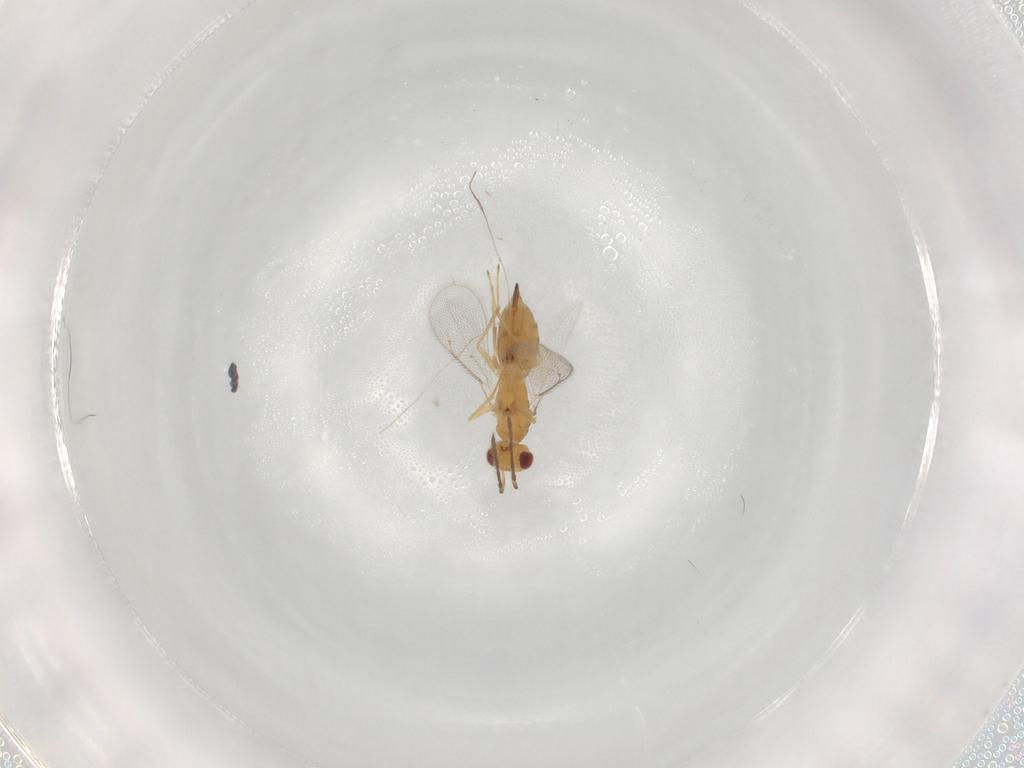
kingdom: Animalia
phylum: Arthropoda
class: Insecta
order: Hymenoptera
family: Eulophidae
